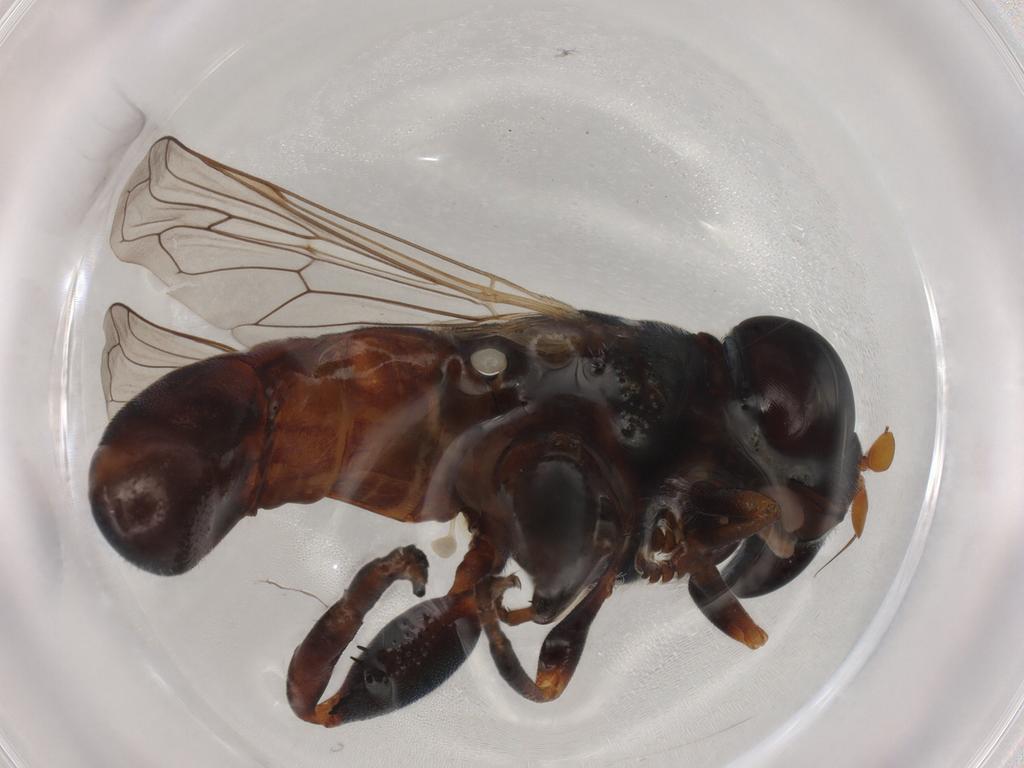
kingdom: Animalia
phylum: Arthropoda
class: Insecta
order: Diptera
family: Syrphidae
